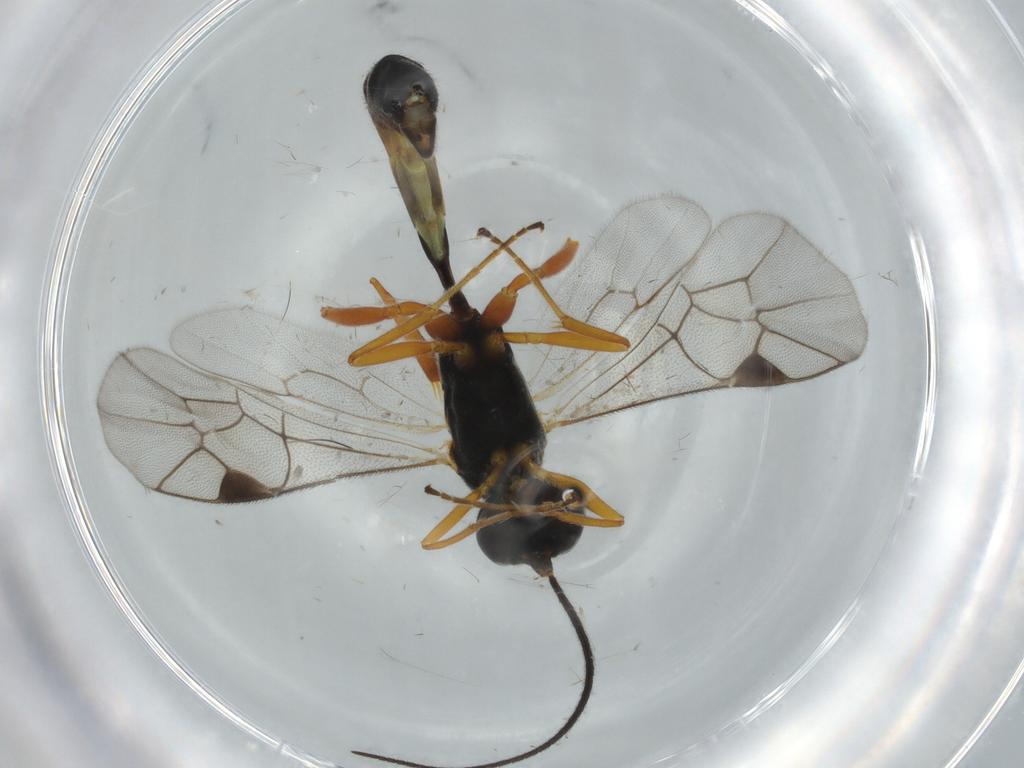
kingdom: Animalia
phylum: Arthropoda
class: Insecta
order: Hymenoptera
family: Ichneumonidae
